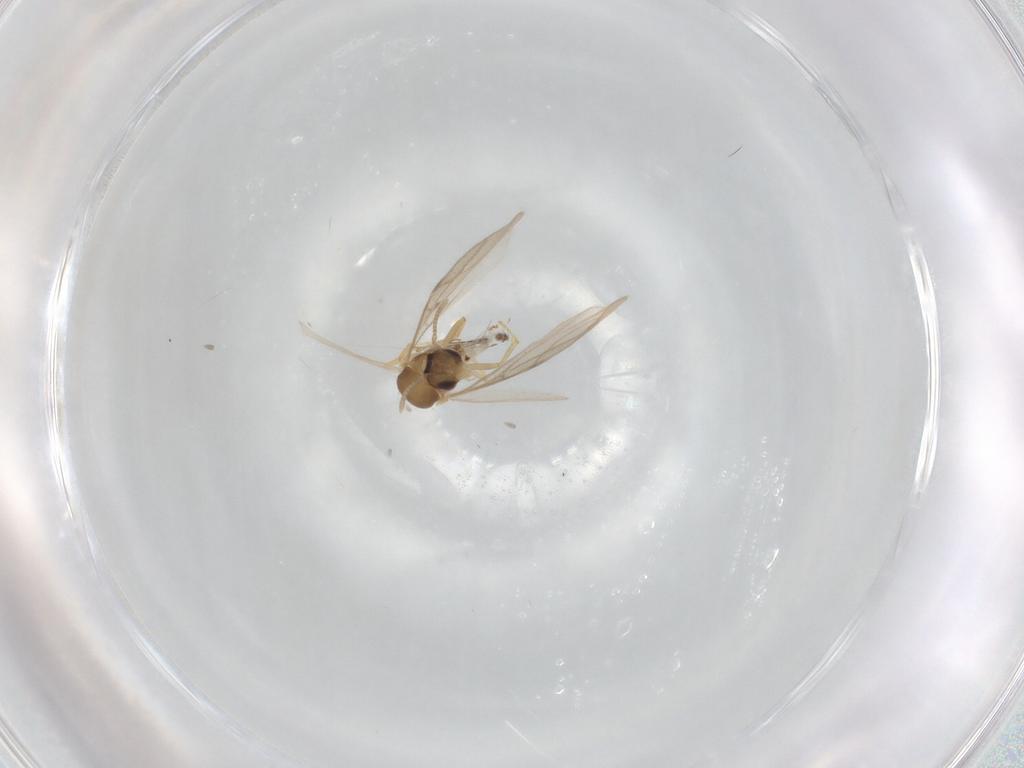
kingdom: Animalia
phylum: Arthropoda
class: Insecta
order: Hymenoptera
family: Formicidae
